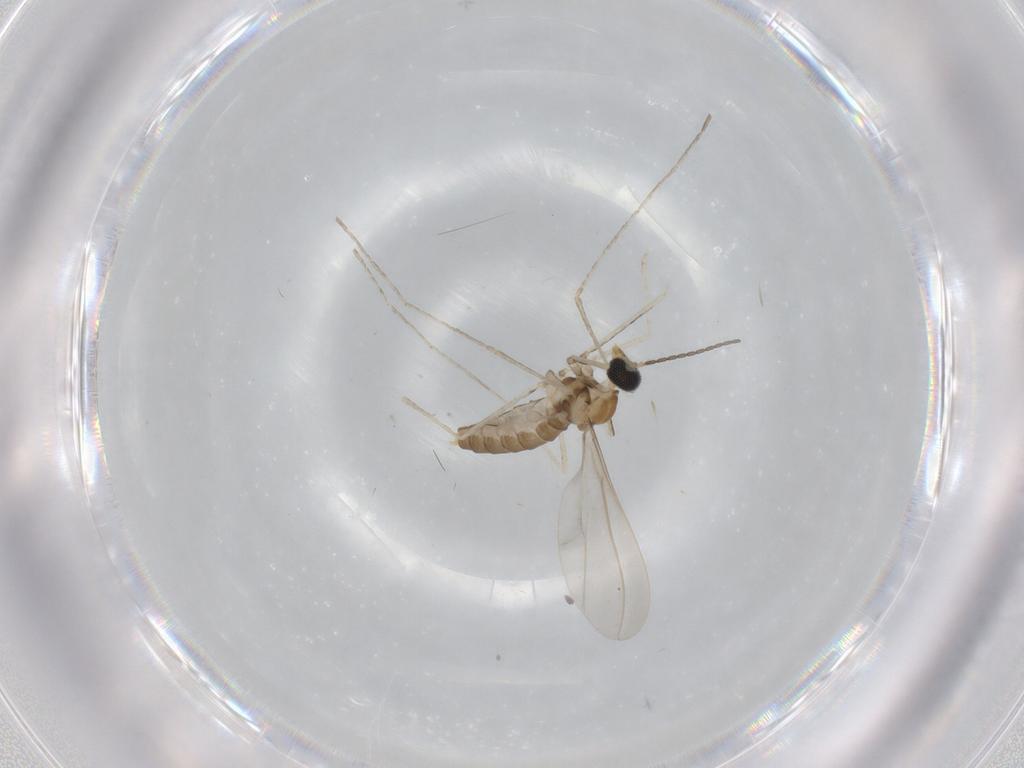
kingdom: Animalia
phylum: Arthropoda
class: Insecta
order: Diptera
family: Cecidomyiidae
